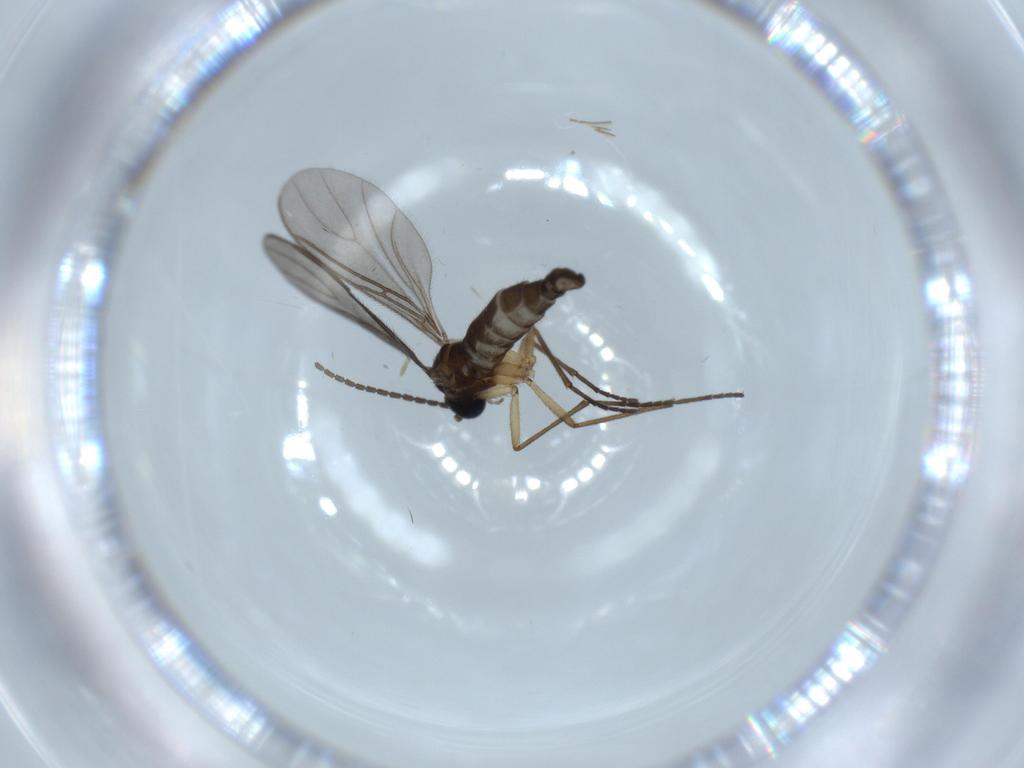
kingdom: Animalia
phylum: Arthropoda
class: Insecta
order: Diptera
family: Sciaridae
